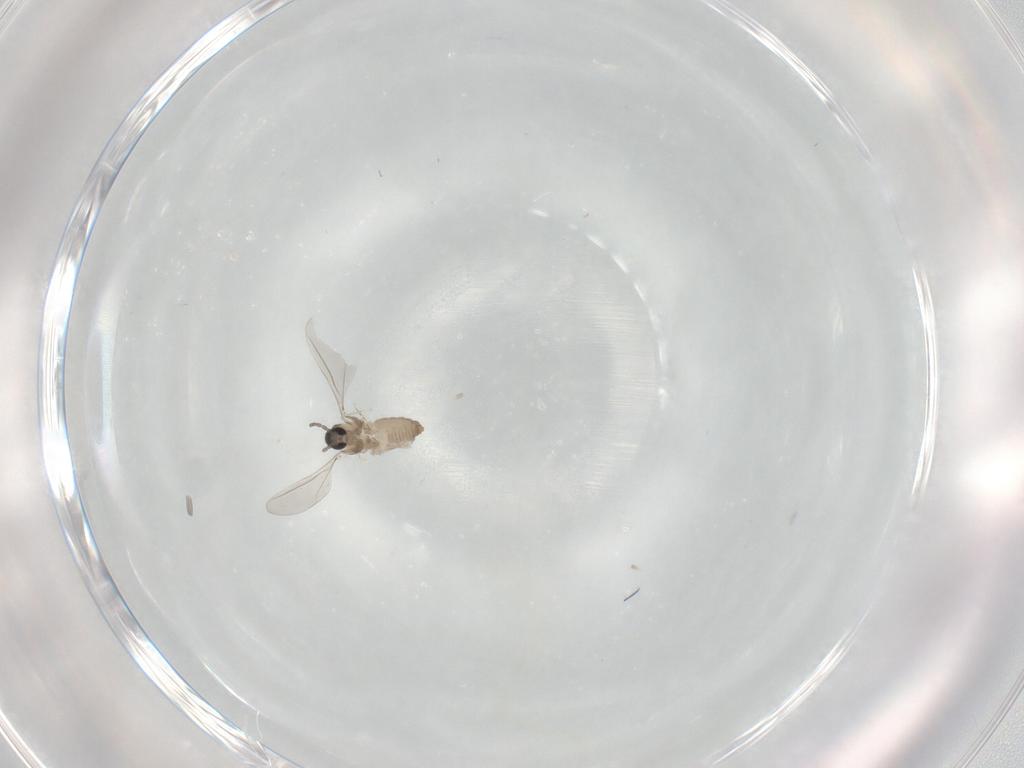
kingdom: Animalia
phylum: Arthropoda
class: Insecta
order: Diptera
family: Cecidomyiidae
